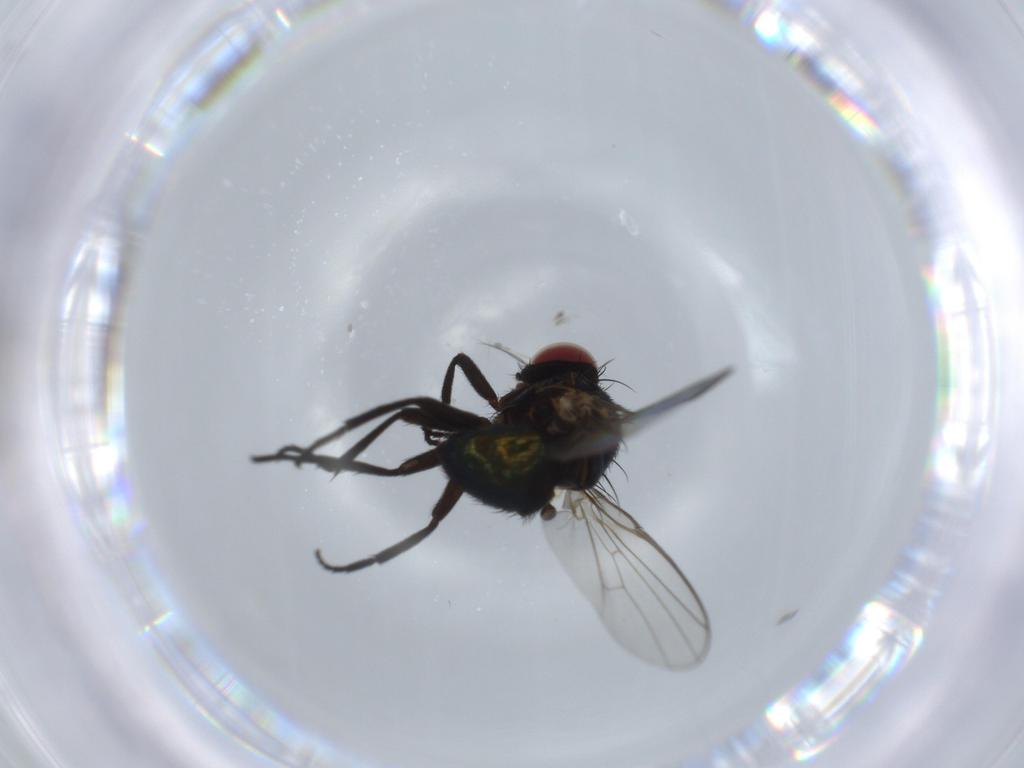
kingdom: Animalia
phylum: Arthropoda
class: Insecta
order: Diptera
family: Agromyzidae
